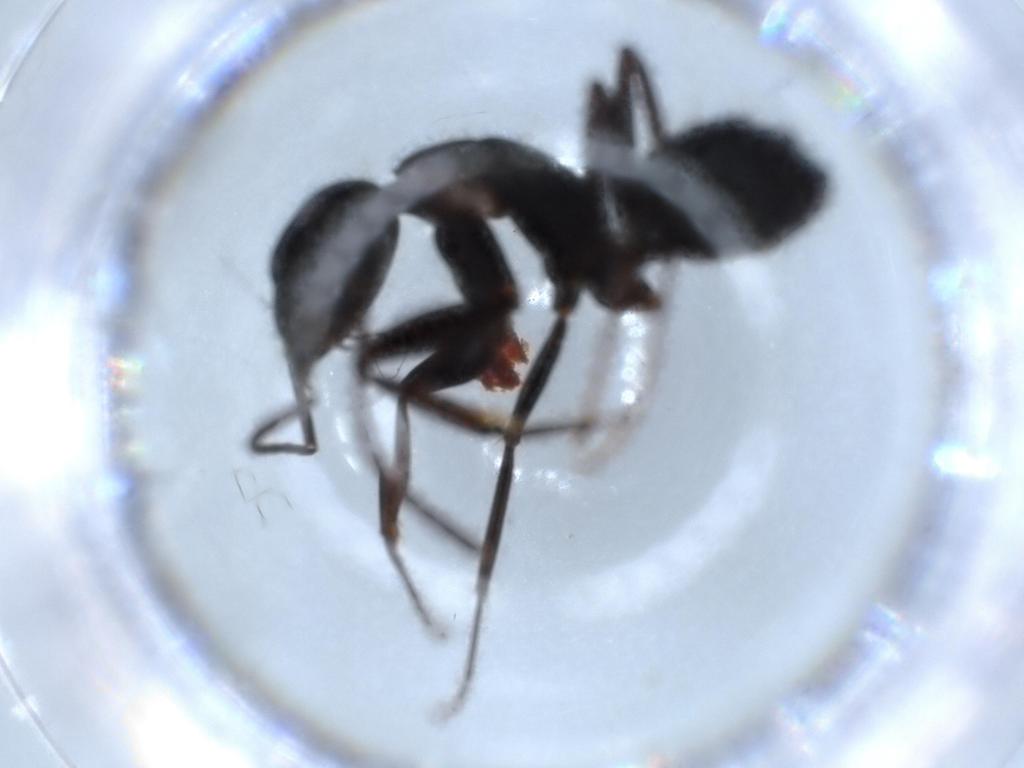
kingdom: Animalia
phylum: Arthropoda
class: Insecta
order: Hymenoptera
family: Formicidae
